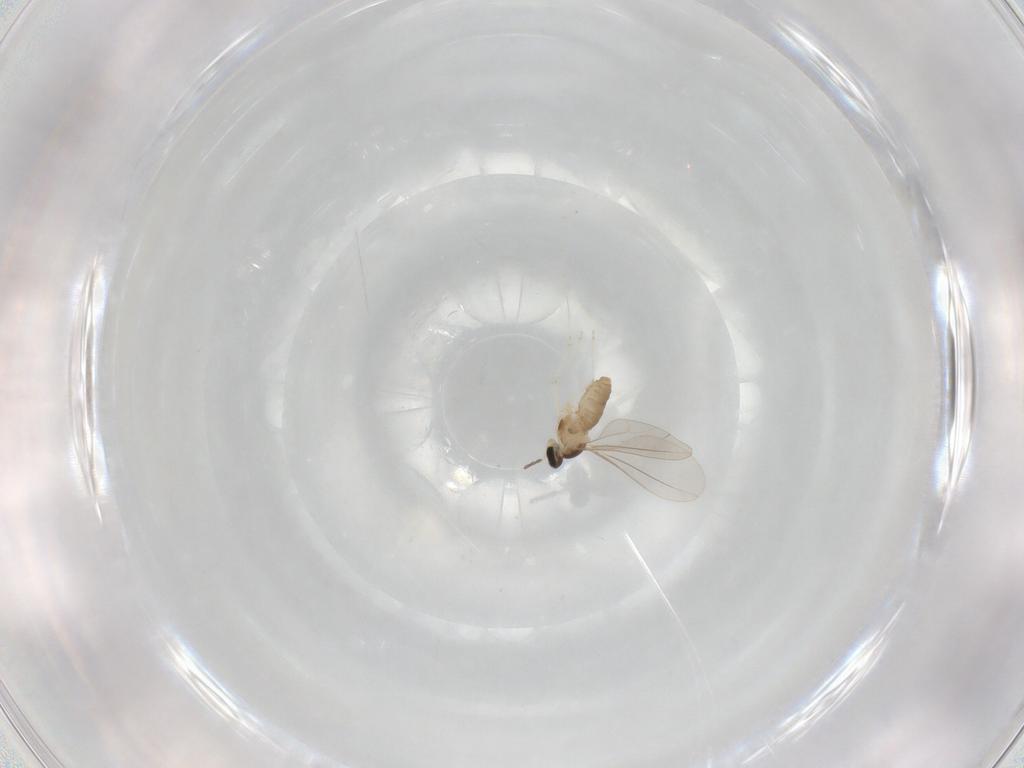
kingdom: Animalia
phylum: Arthropoda
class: Insecta
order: Diptera
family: Cecidomyiidae
